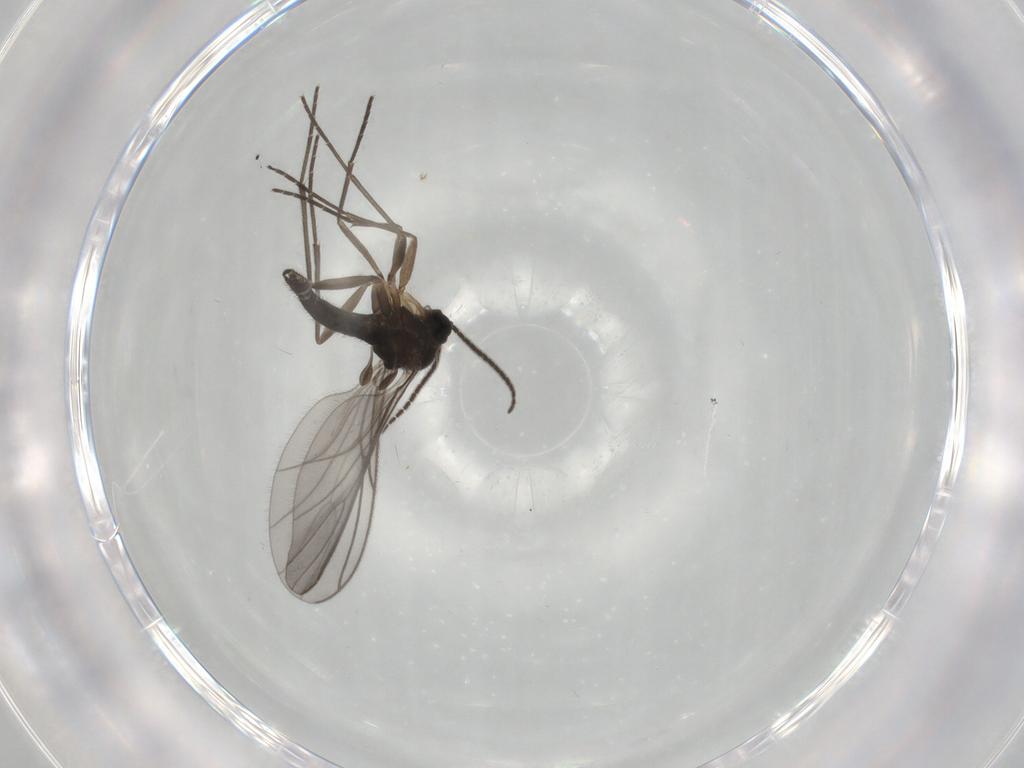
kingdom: Animalia
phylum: Arthropoda
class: Insecta
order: Diptera
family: Sciaridae
